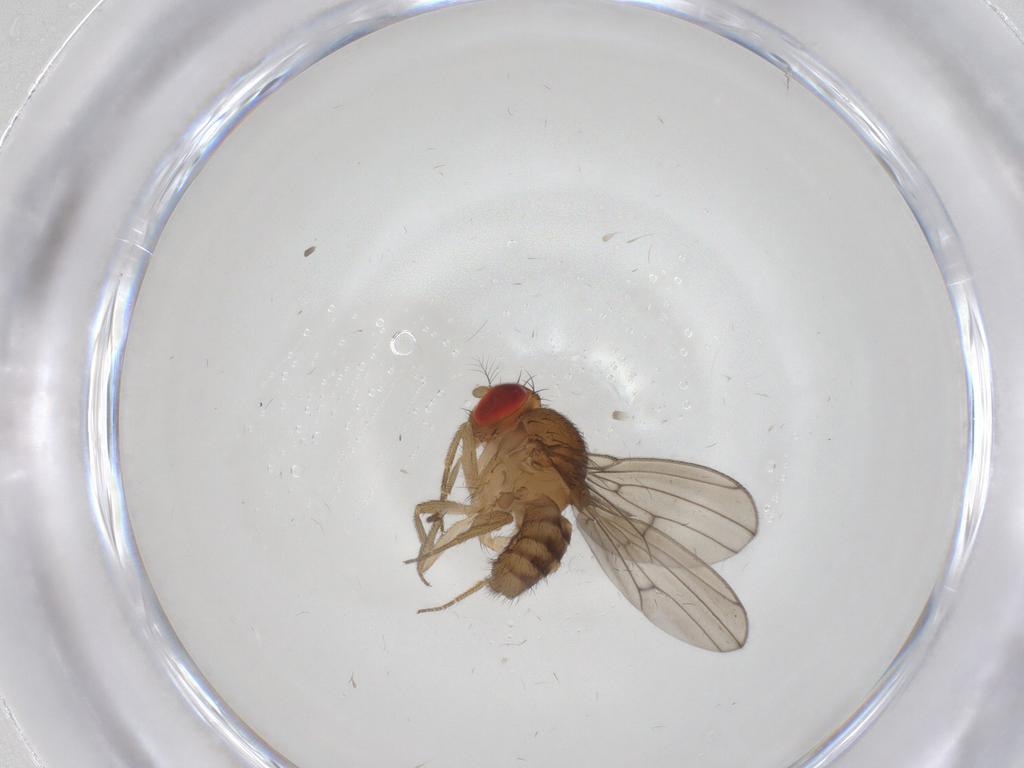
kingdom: Animalia
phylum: Arthropoda
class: Insecta
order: Diptera
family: Drosophilidae
